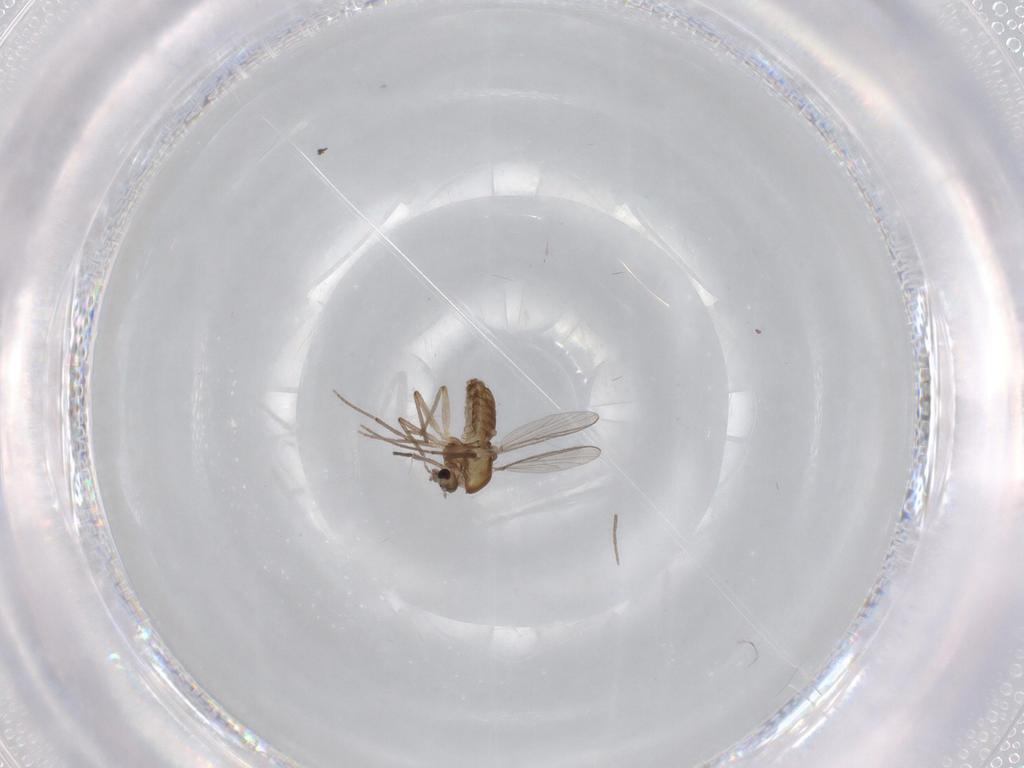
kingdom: Animalia
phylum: Arthropoda
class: Insecta
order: Diptera
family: Chironomidae
